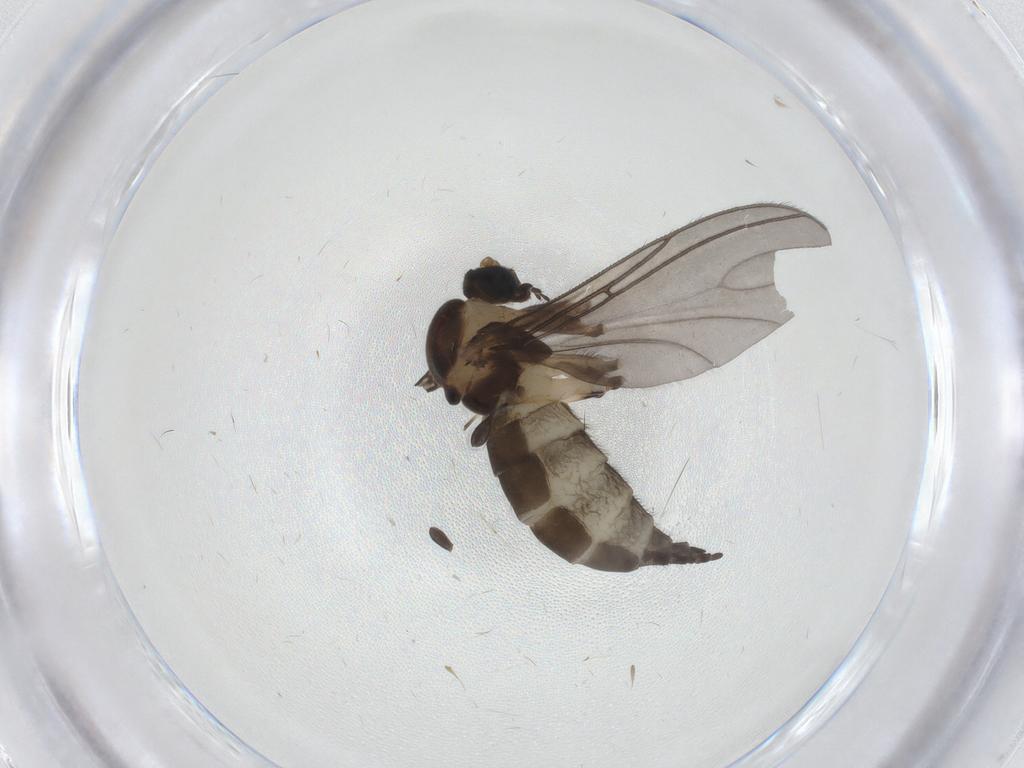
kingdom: Animalia
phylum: Arthropoda
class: Insecta
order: Diptera
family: Sciaridae
